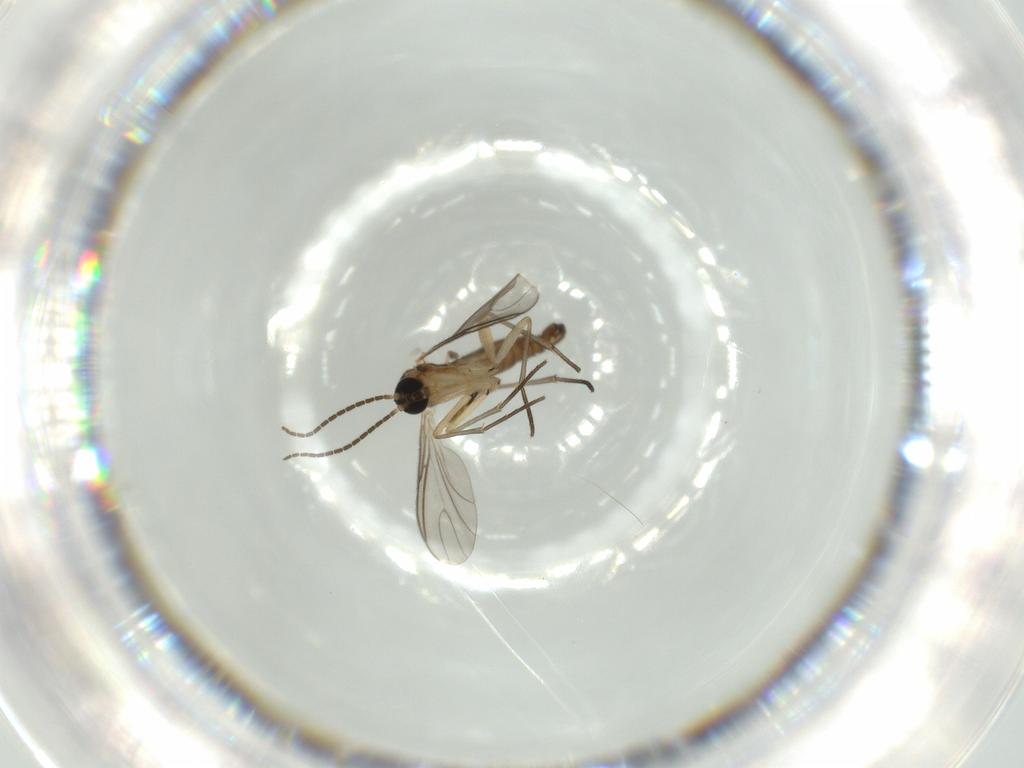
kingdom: Animalia
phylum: Arthropoda
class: Insecta
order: Diptera
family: Sciaridae
